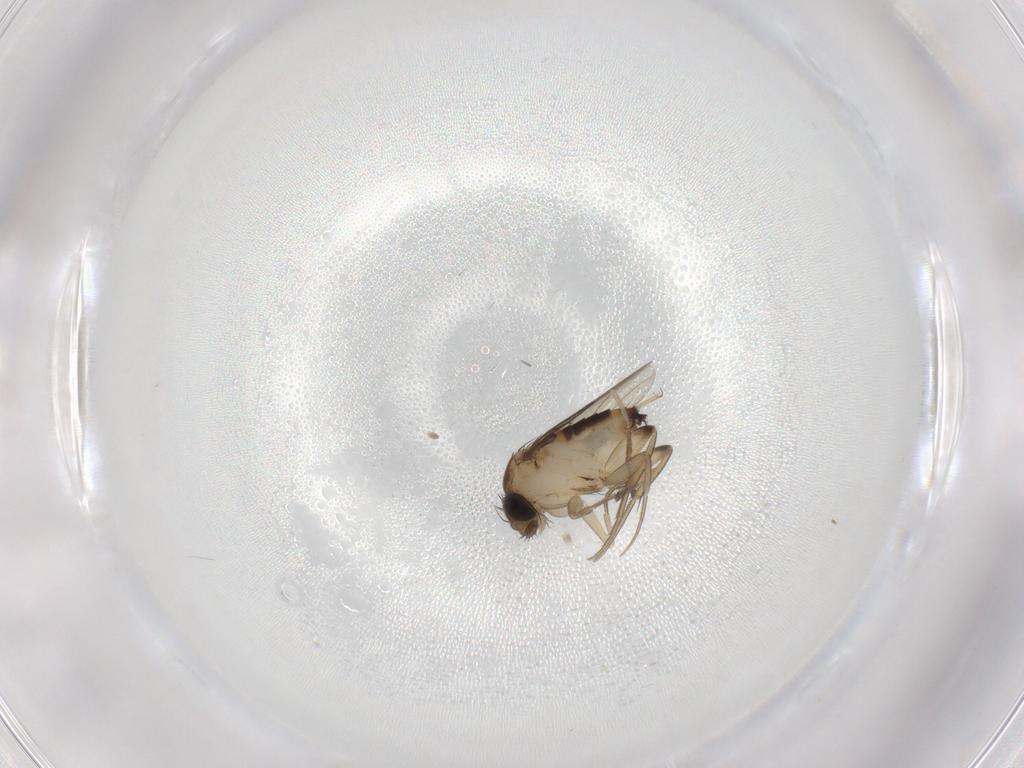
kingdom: Animalia
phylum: Arthropoda
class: Insecta
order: Diptera
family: Phoridae
